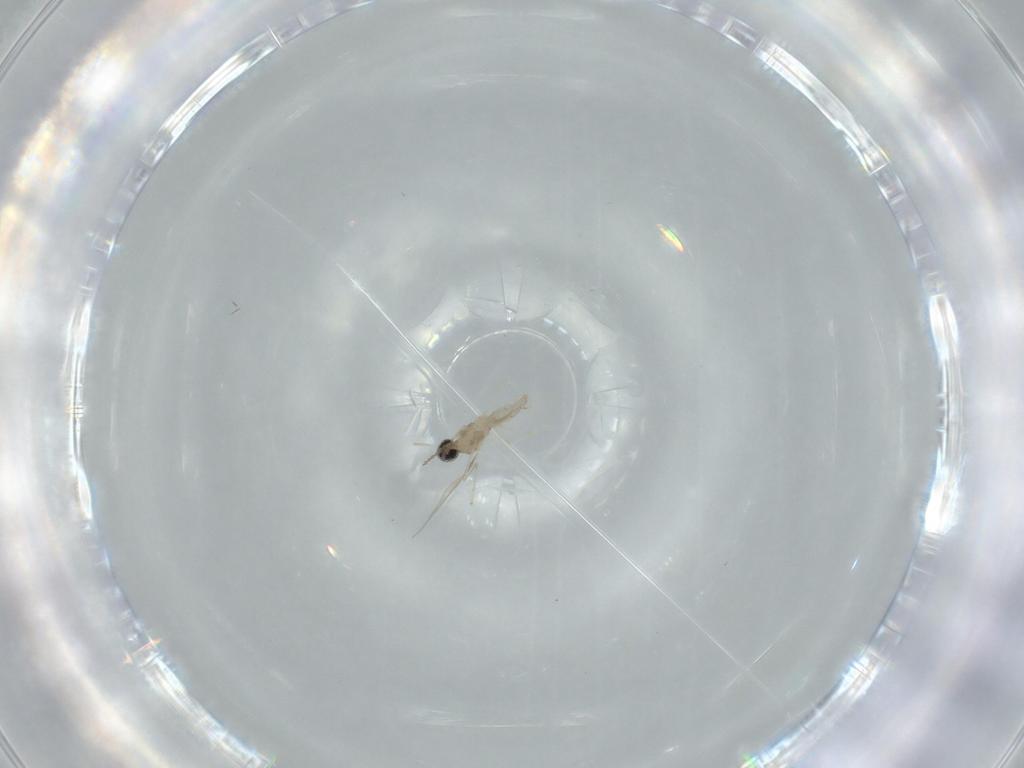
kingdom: Animalia
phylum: Arthropoda
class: Insecta
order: Diptera
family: Cecidomyiidae
